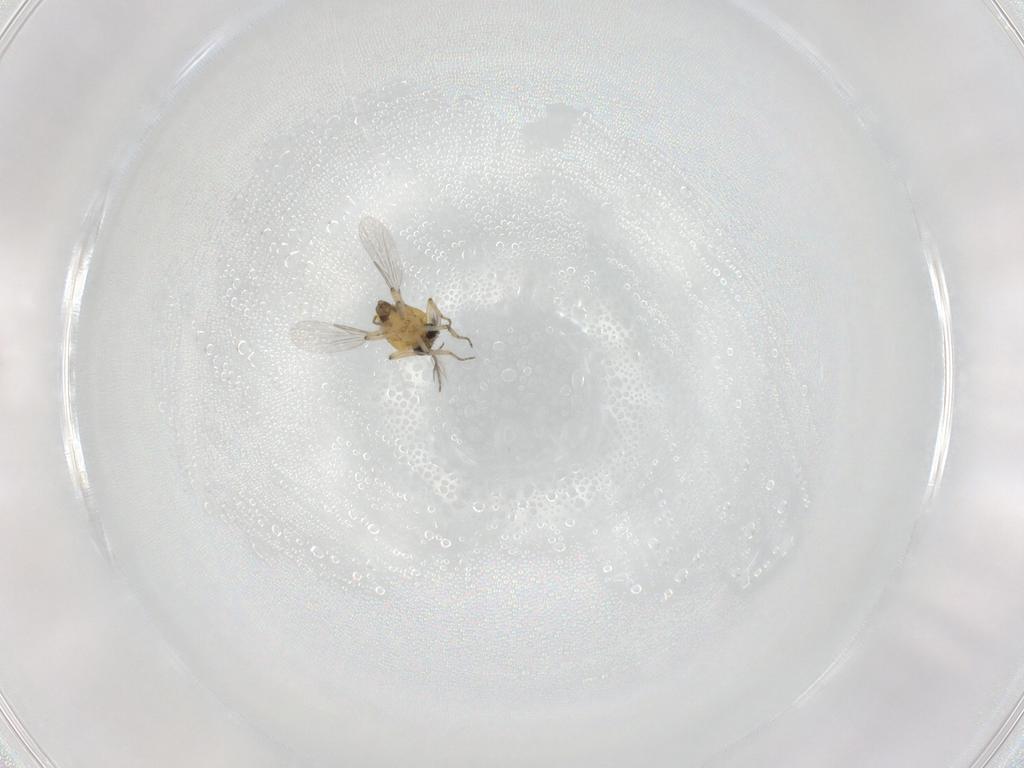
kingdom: Animalia
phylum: Arthropoda
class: Insecta
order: Diptera
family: Ceratopogonidae
